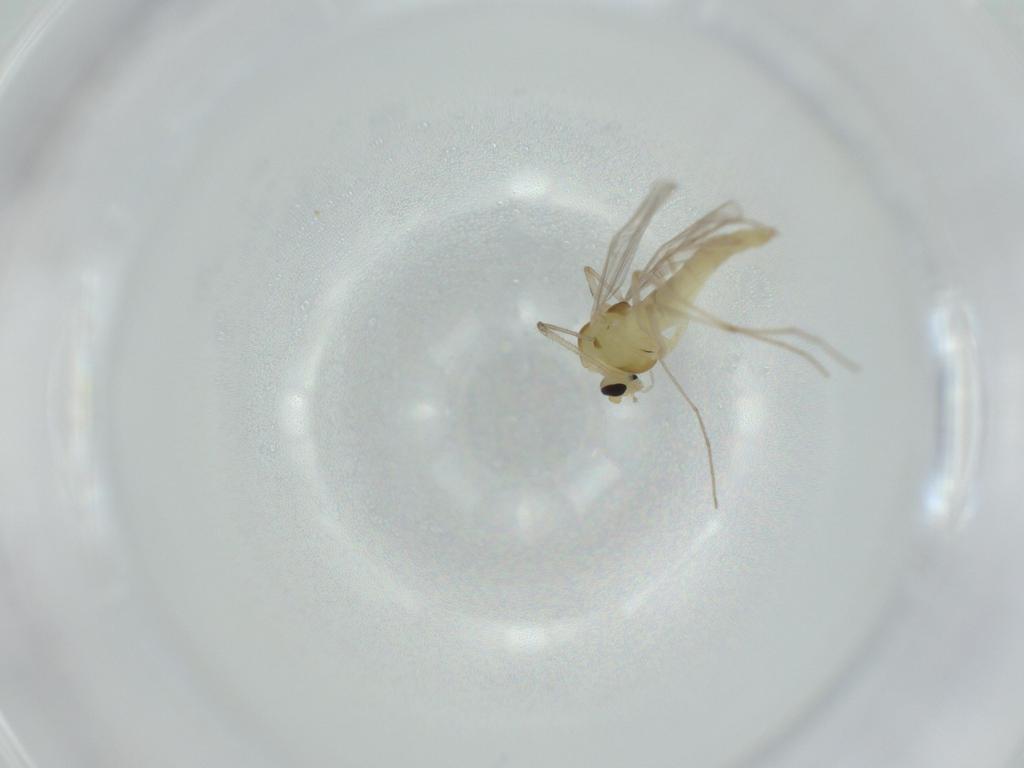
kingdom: Animalia
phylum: Arthropoda
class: Insecta
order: Diptera
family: Chironomidae
